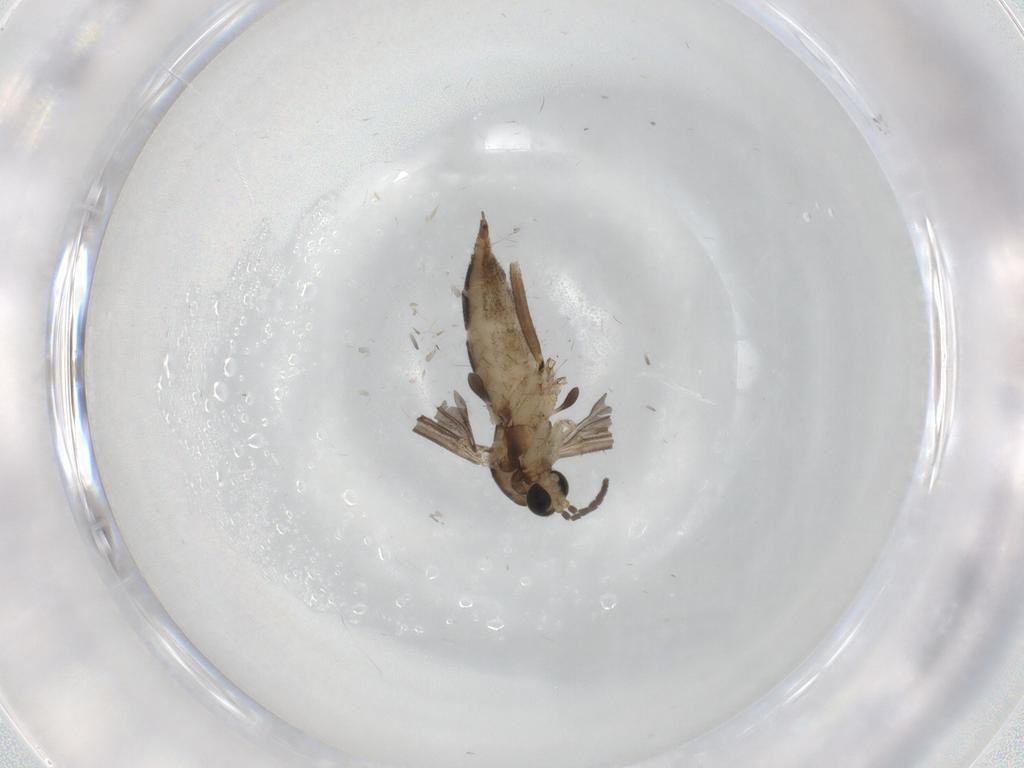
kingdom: Animalia
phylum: Arthropoda
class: Insecta
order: Diptera
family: Sciaridae
